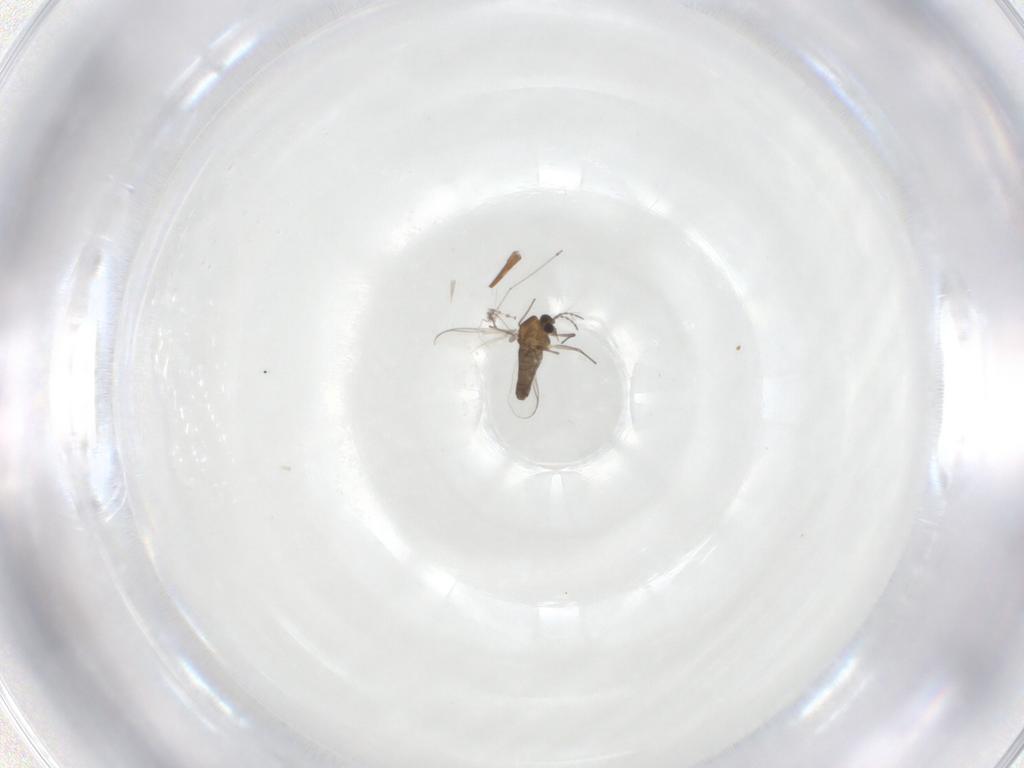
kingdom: Animalia
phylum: Arthropoda
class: Insecta
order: Diptera
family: Chironomidae
